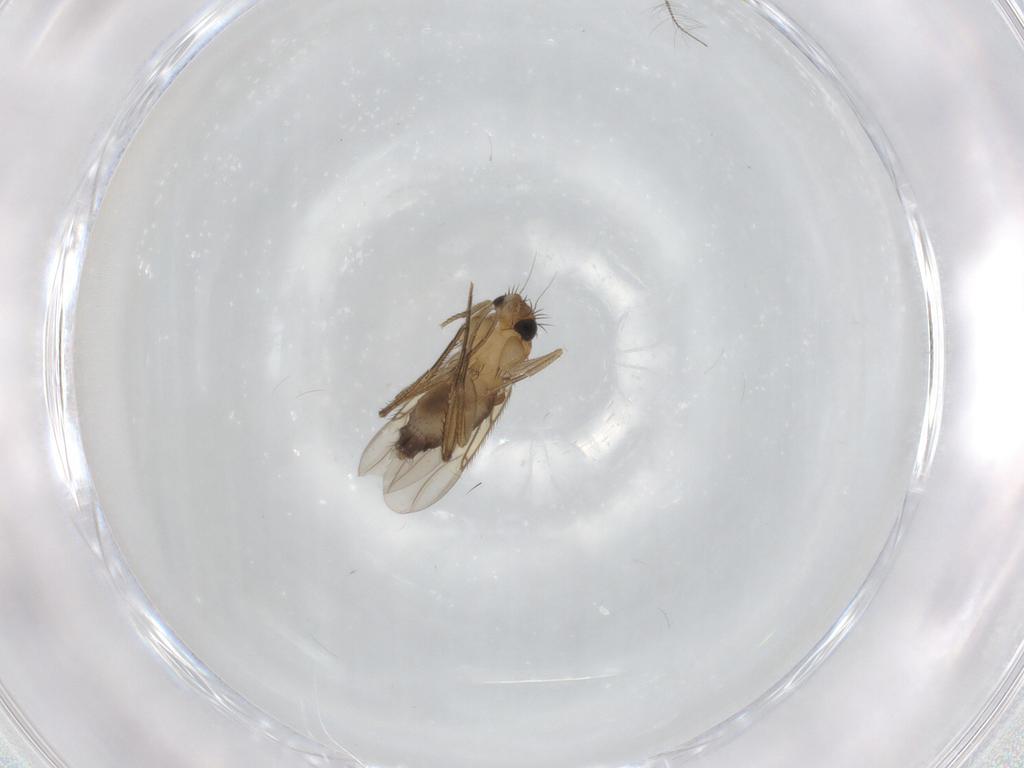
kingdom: Animalia
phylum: Arthropoda
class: Insecta
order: Diptera
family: Phoridae
